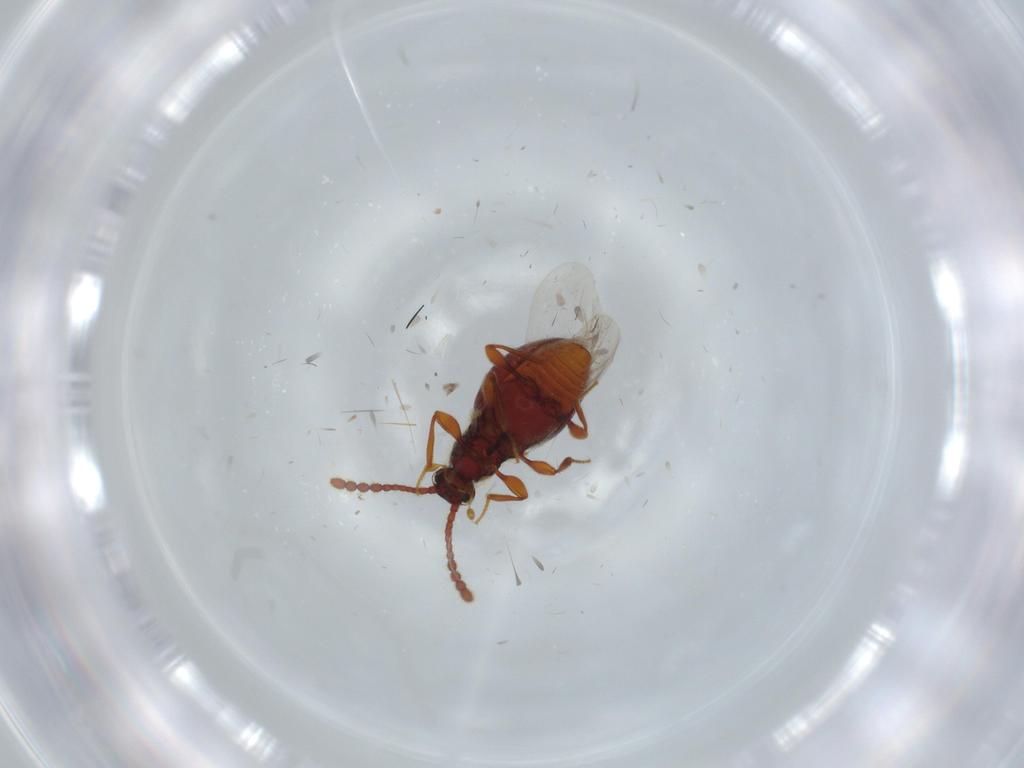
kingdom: Animalia
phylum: Arthropoda
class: Insecta
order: Coleoptera
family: Staphylinidae
